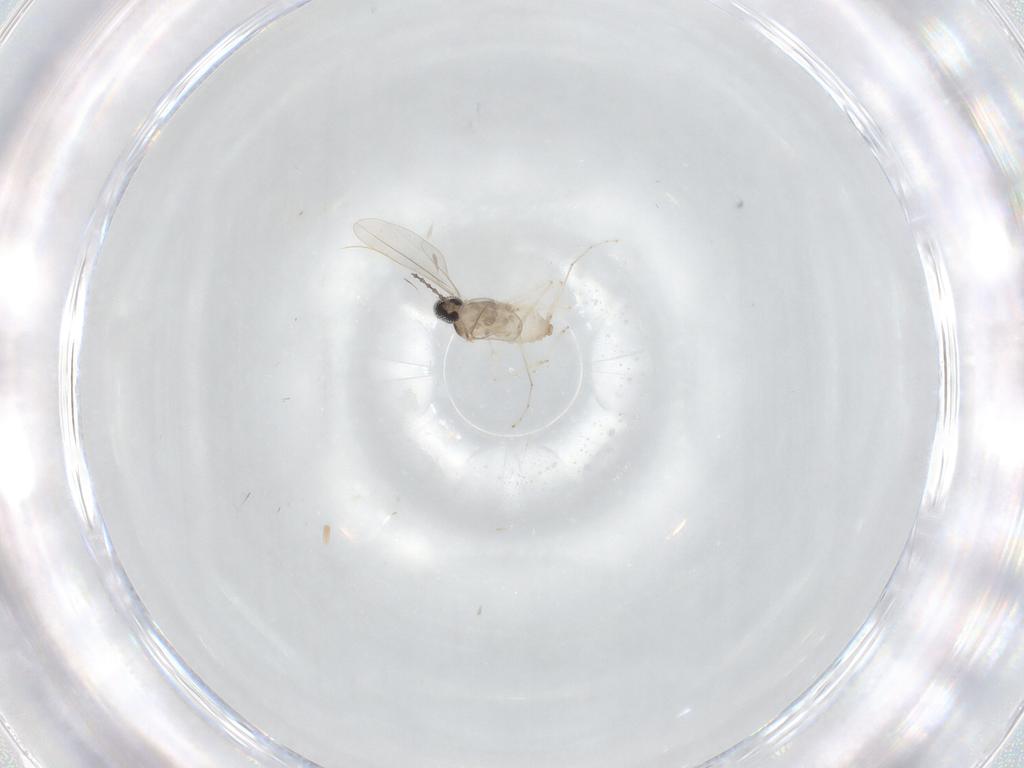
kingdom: Animalia
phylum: Arthropoda
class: Insecta
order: Diptera
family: Cecidomyiidae
